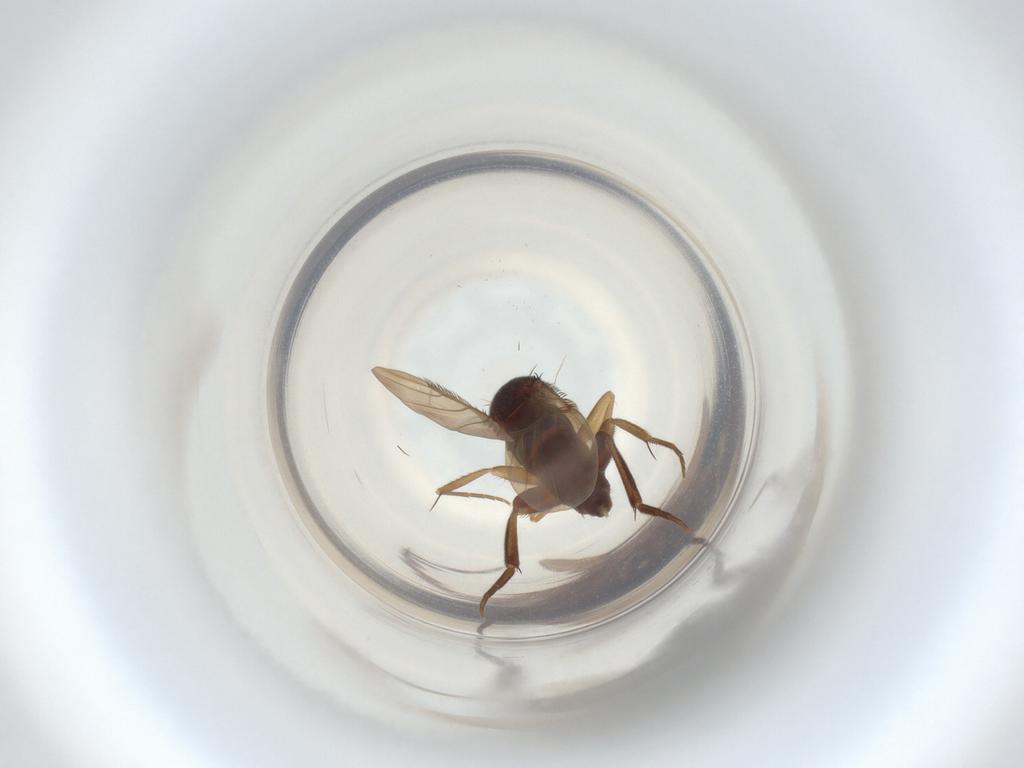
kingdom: Animalia
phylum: Arthropoda
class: Insecta
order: Diptera
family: Phoridae
